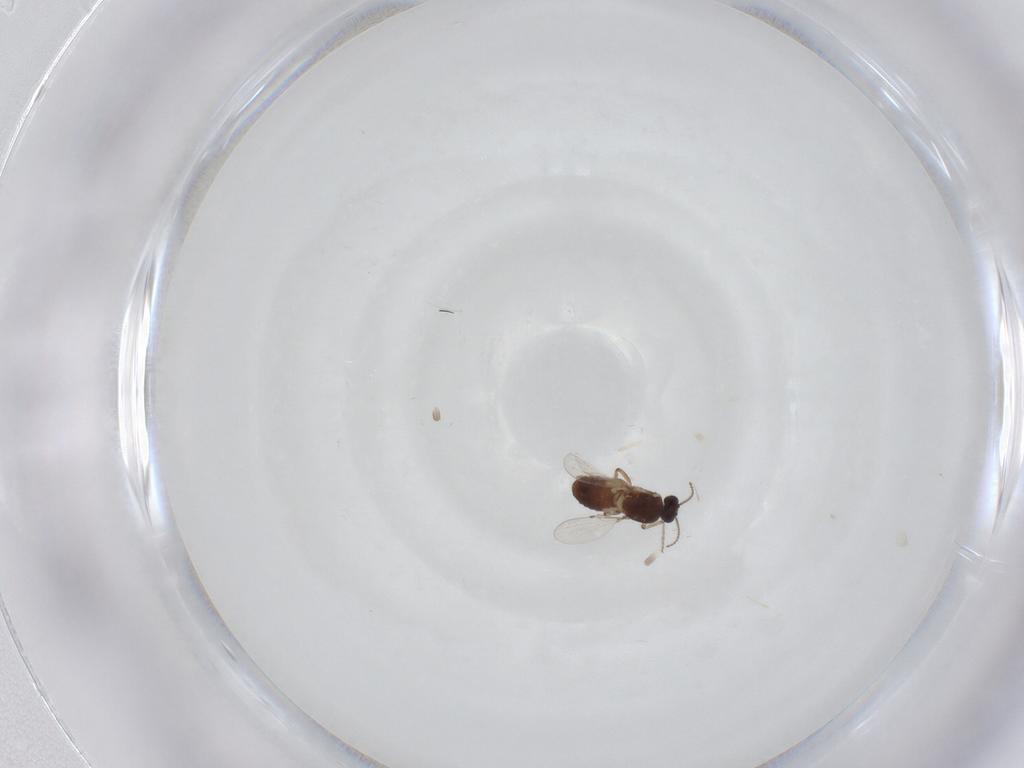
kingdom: Animalia
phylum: Arthropoda
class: Insecta
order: Diptera
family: Ceratopogonidae
